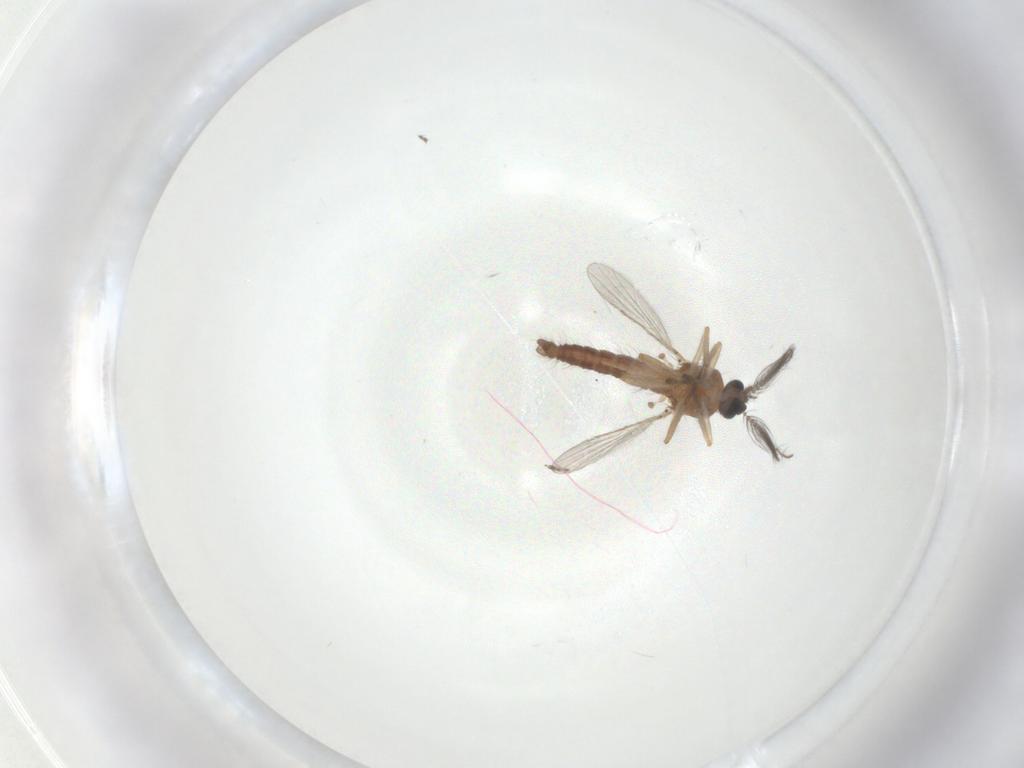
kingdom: Animalia
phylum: Arthropoda
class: Insecta
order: Diptera
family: Ceratopogonidae
